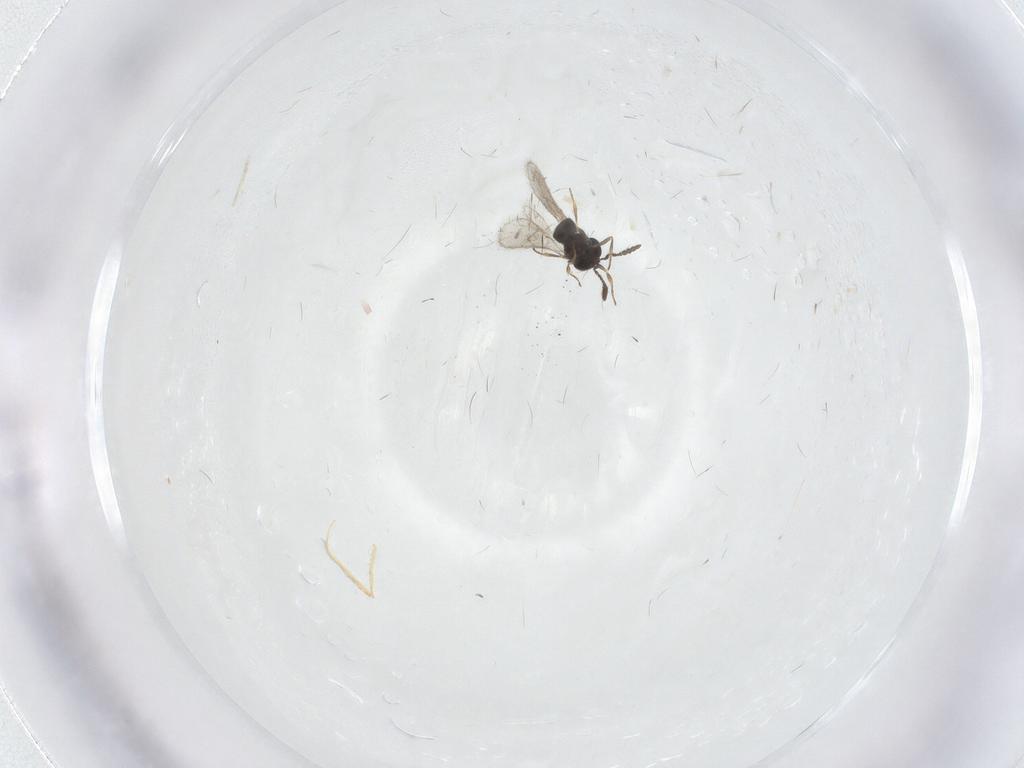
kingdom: Animalia
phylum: Arthropoda
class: Insecta
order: Hymenoptera
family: Scelionidae
